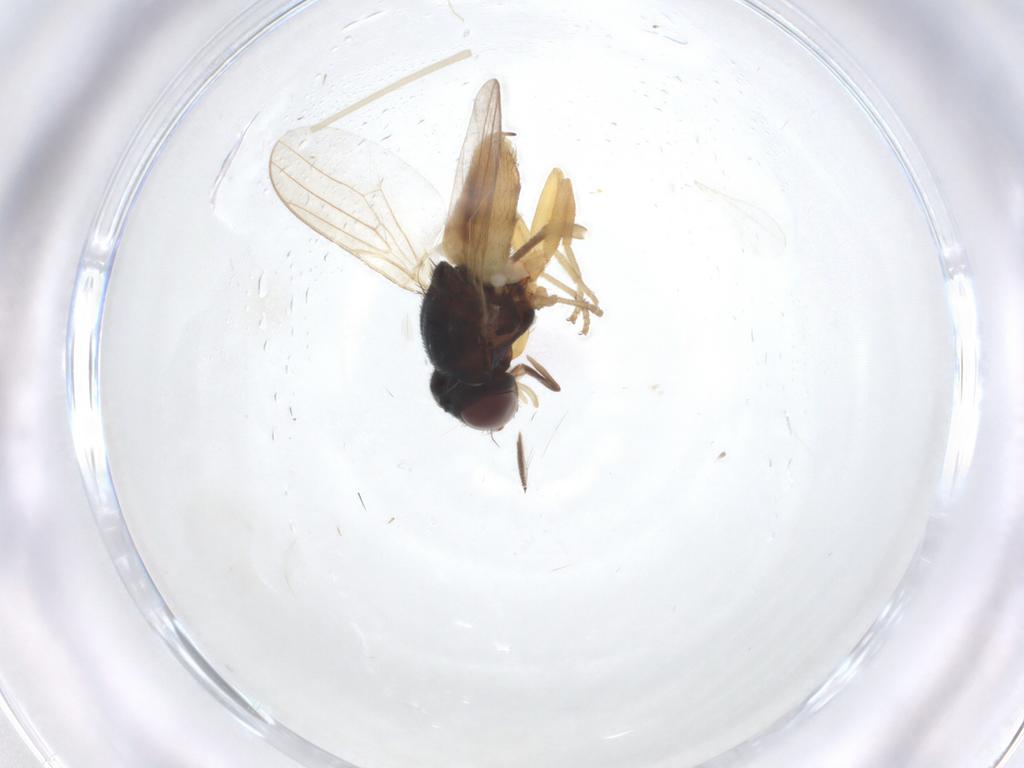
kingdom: Animalia
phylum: Arthropoda
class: Insecta
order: Diptera
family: Chloropidae
